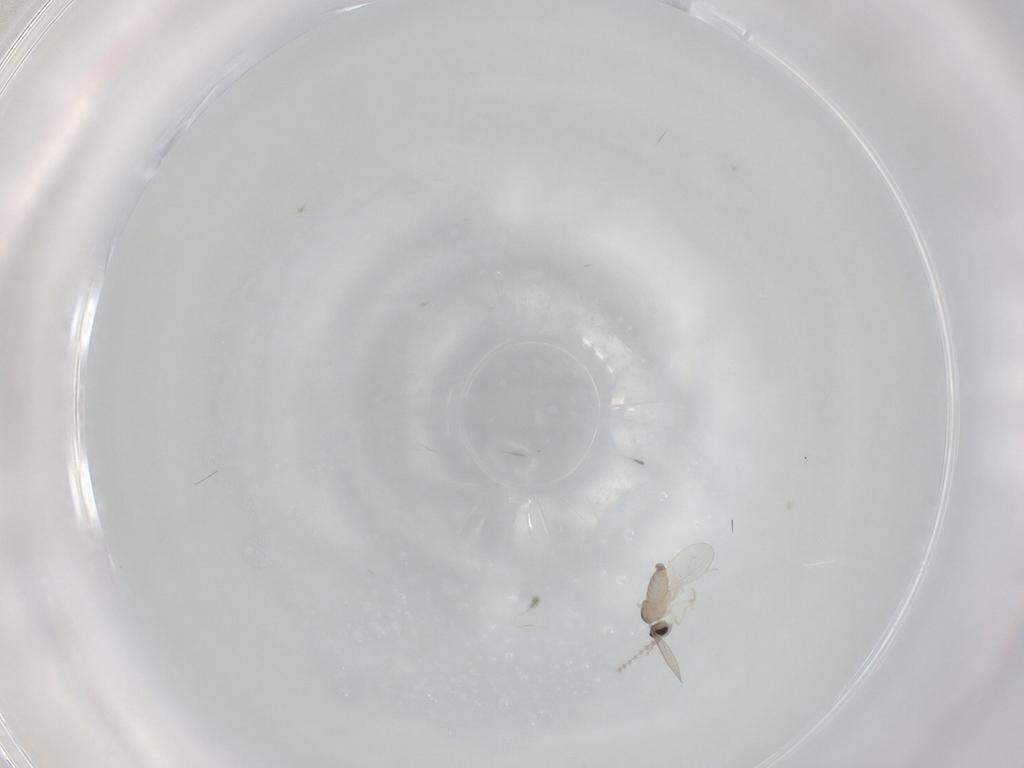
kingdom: Animalia
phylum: Arthropoda
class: Insecta
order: Diptera
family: Cecidomyiidae
